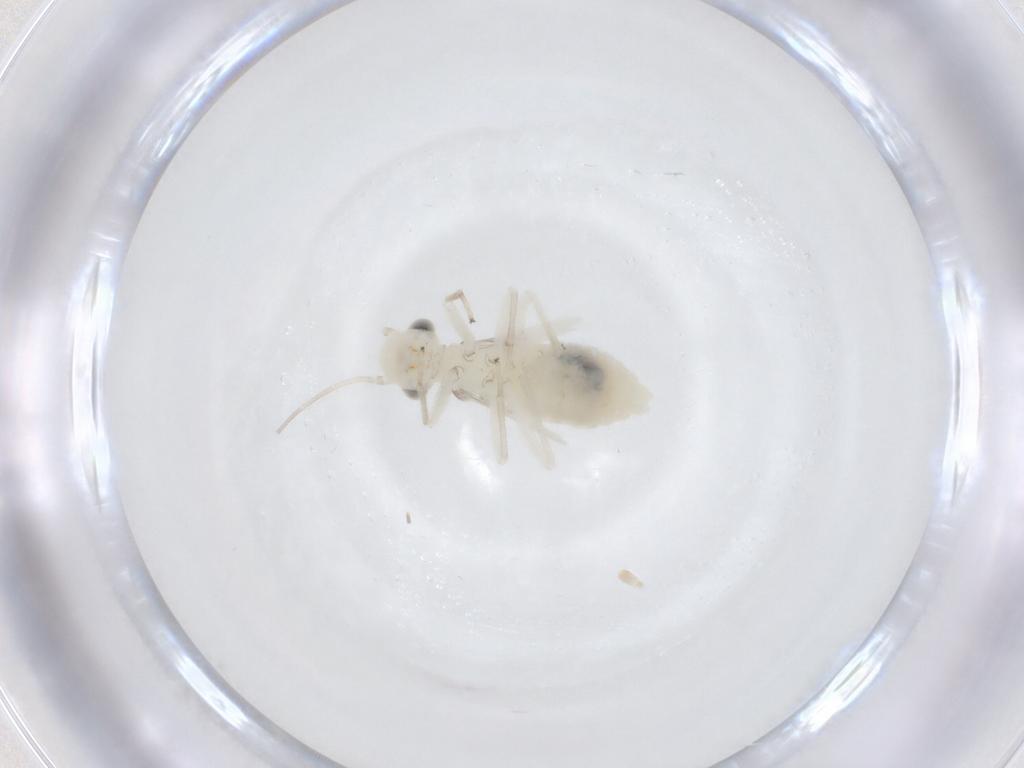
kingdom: Animalia
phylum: Arthropoda
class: Insecta
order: Psocodea
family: Caeciliusidae
